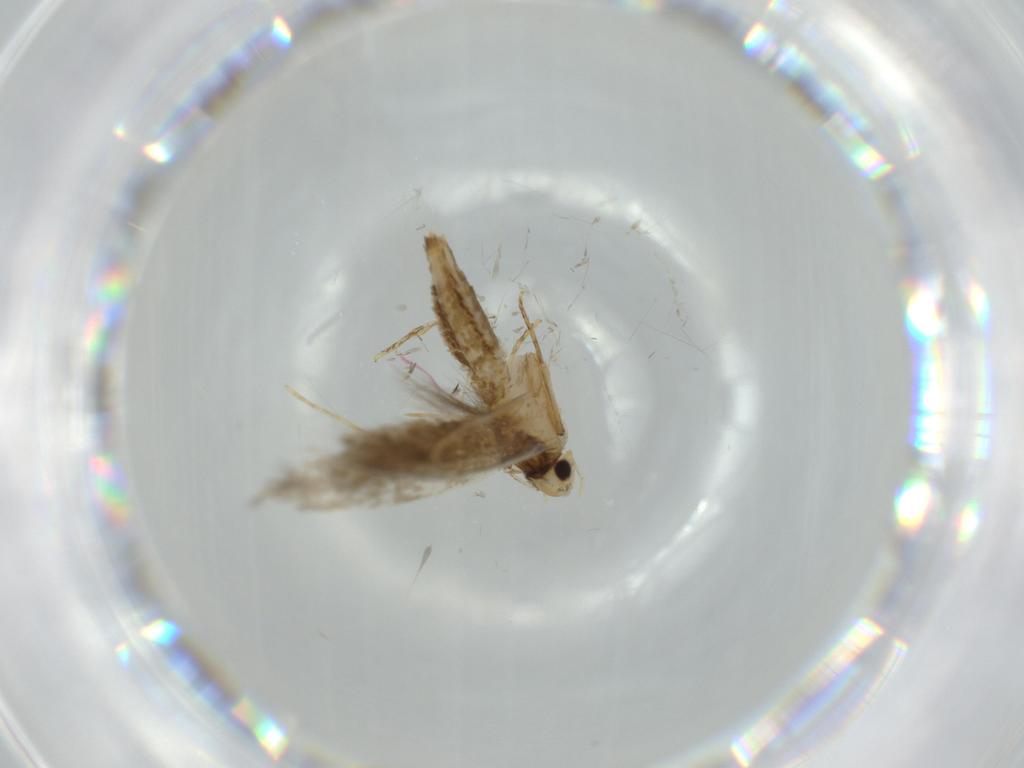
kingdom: Animalia
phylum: Arthropoda
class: Insecta
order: Lepidoptera
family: Tineidae
